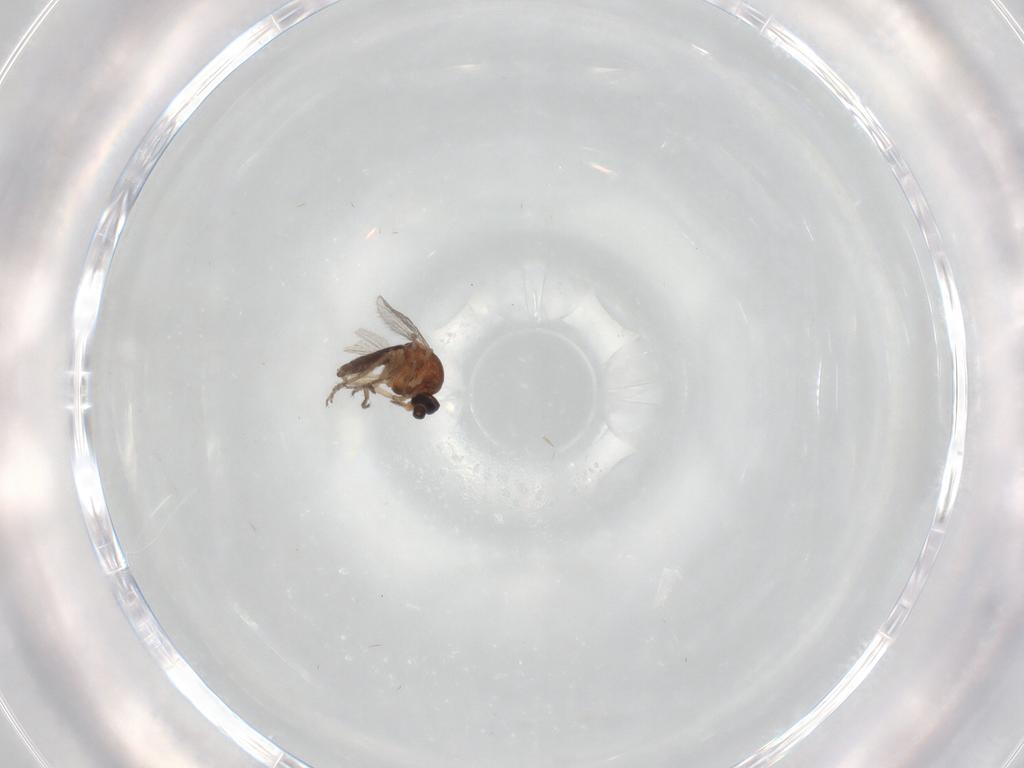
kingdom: Animalia
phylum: Arthropoda
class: Insecta
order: Diptera
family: Ceratopogonidae
